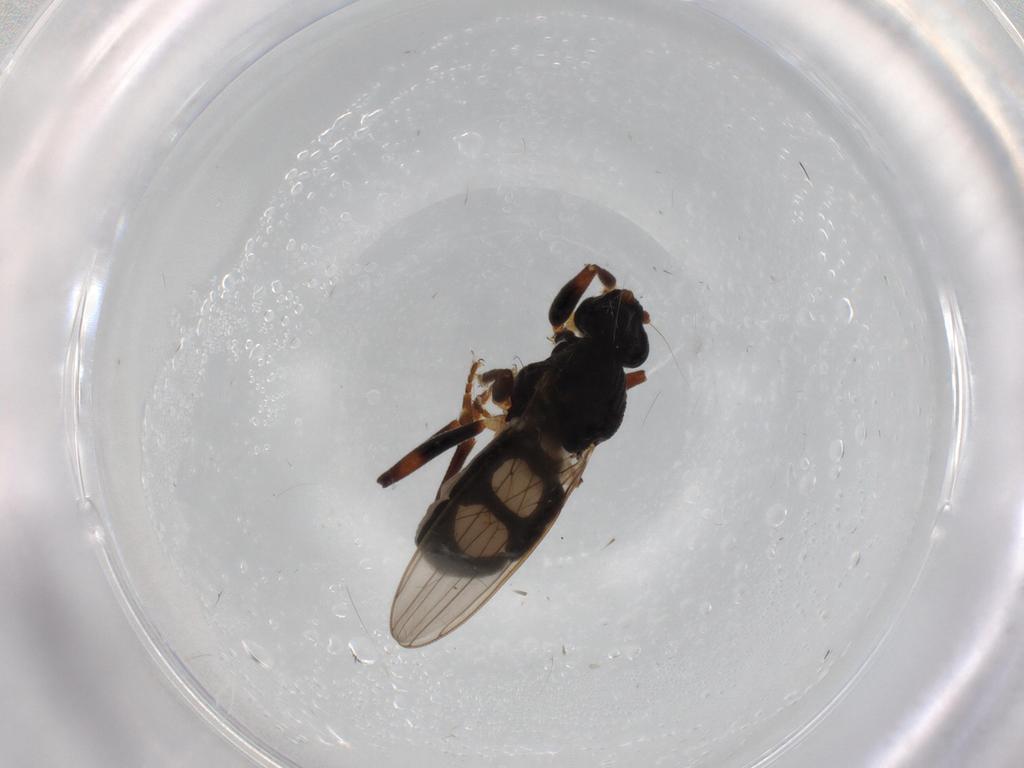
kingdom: Animalia
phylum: Arthropoda
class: Insecta
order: Diptera
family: Sphaeroceridae
